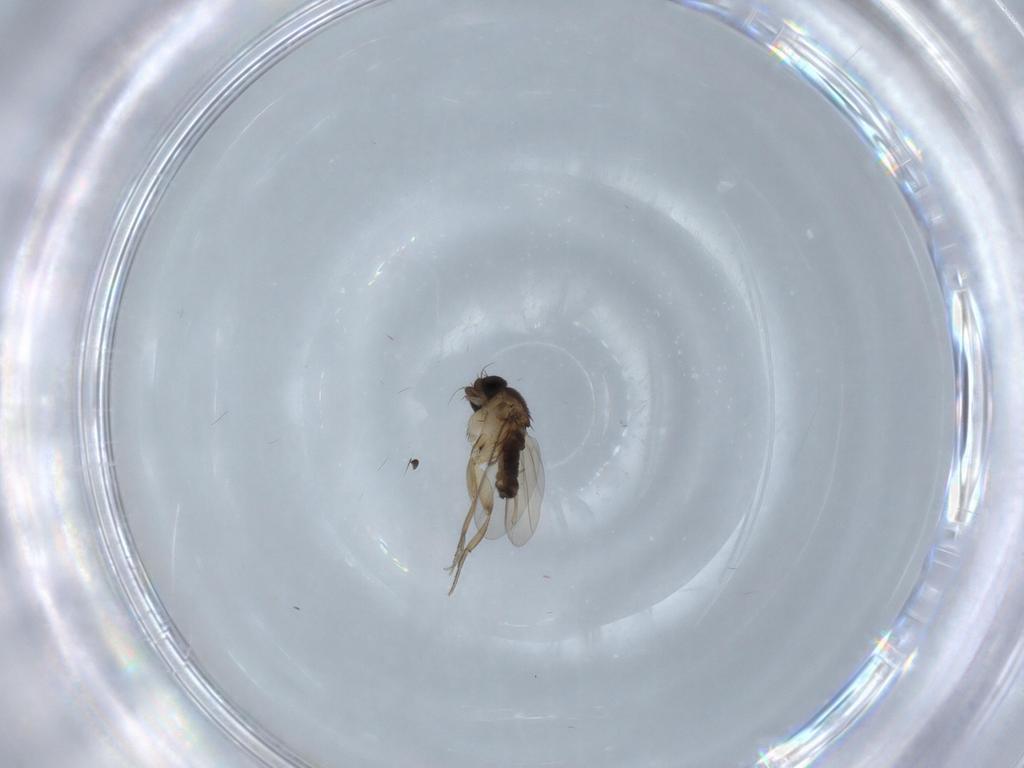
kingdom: Animalia
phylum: Arthropoda
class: Insecta
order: Diptera
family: Phoridae
